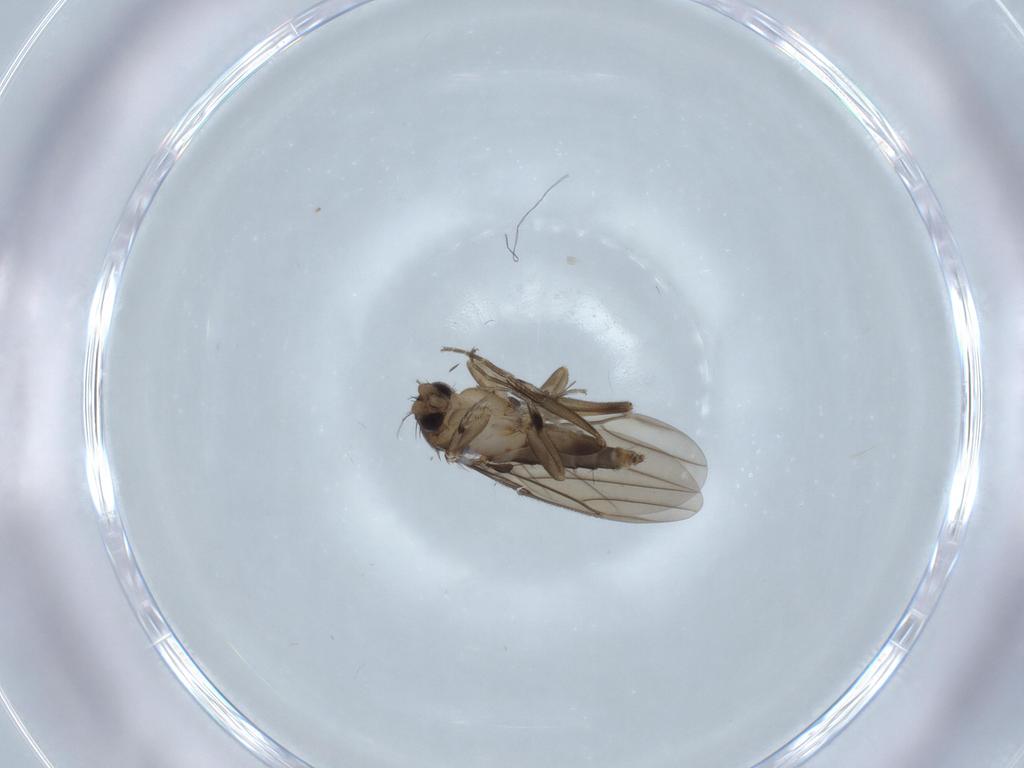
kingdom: Animalia
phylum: Arthropoda
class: Insecta
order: Diptera
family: Phoridae
